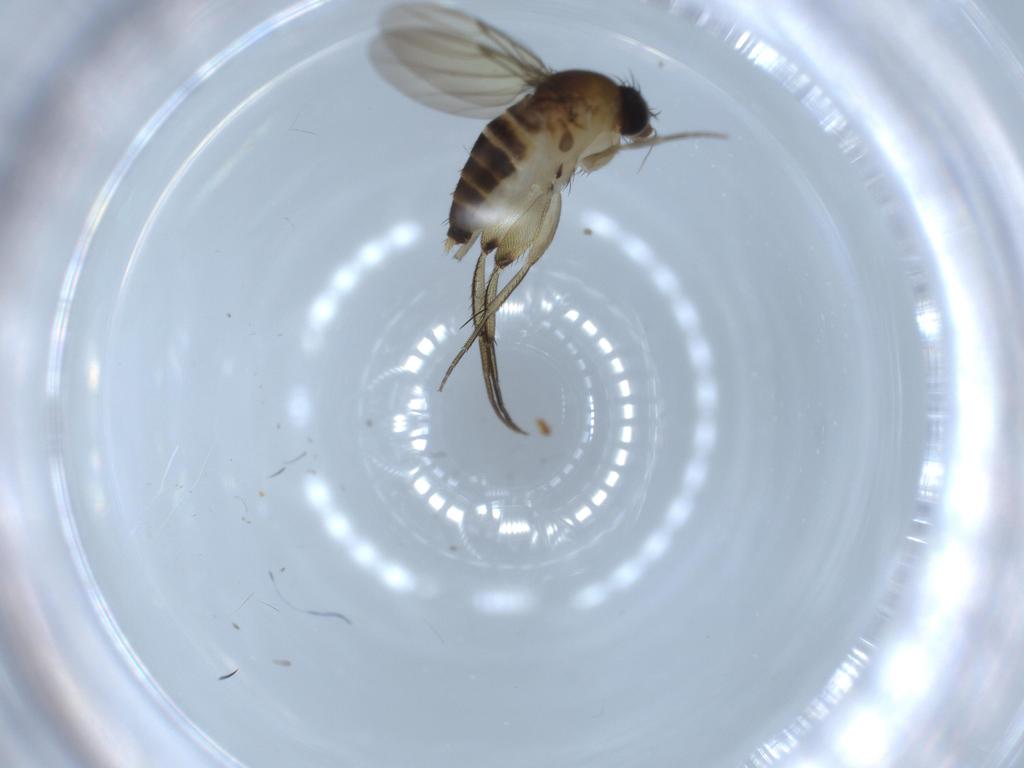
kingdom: Animalia
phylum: Arthropoda
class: Insecta
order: Diptera
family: Phoridae
